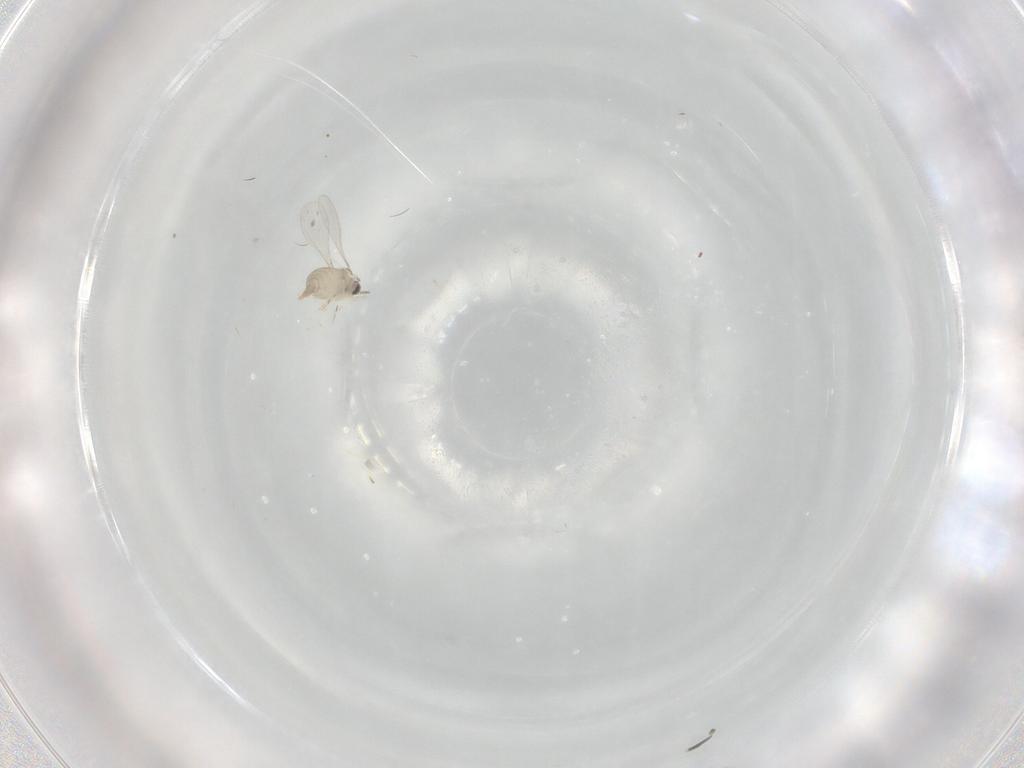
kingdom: Animalia
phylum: Arthropoda
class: Insecta
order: Diptera
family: Chironomidae
